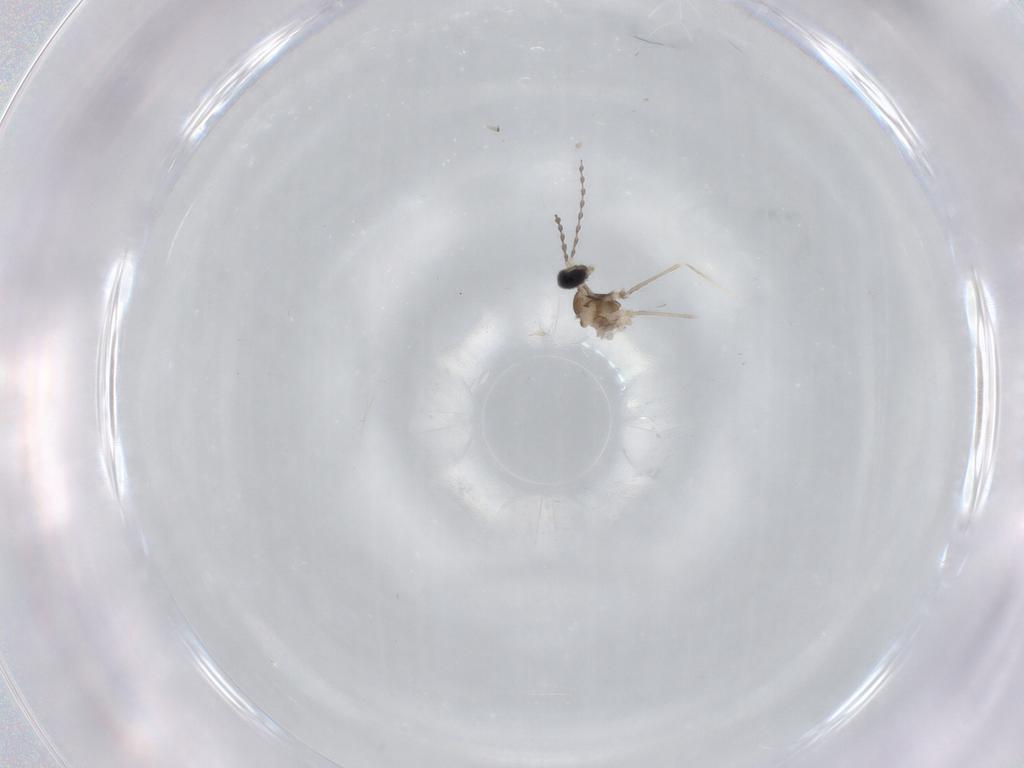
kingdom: Animalia
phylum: Arthropoda
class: Insecta
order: Diptera
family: Cecidomyiidae
